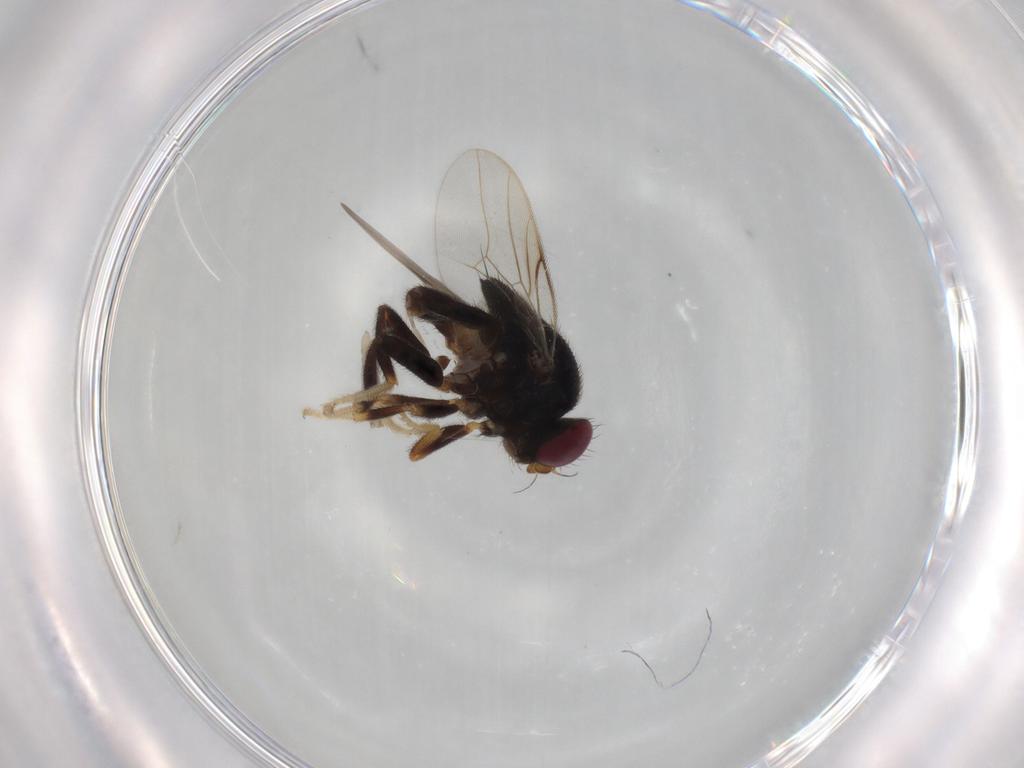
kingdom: Animalia
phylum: Arthropoda
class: Insecta
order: Diptera
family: Chloropidae
